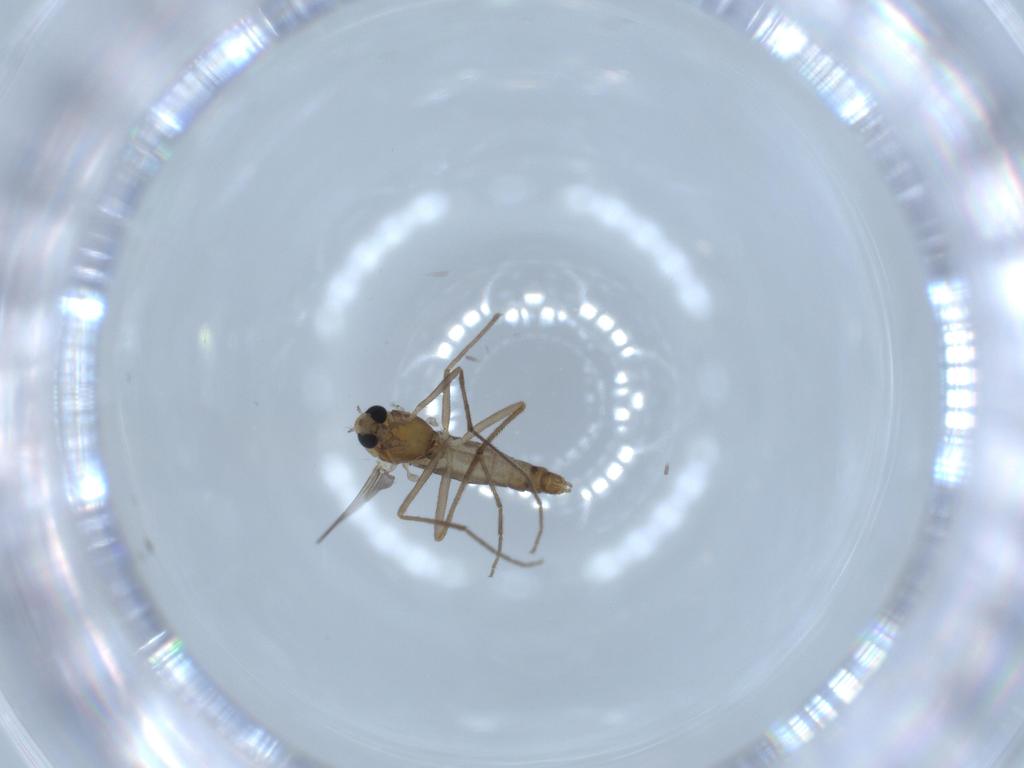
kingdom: Animalia
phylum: Arthropoda
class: Insecta
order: Diptera
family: Chironomidae
